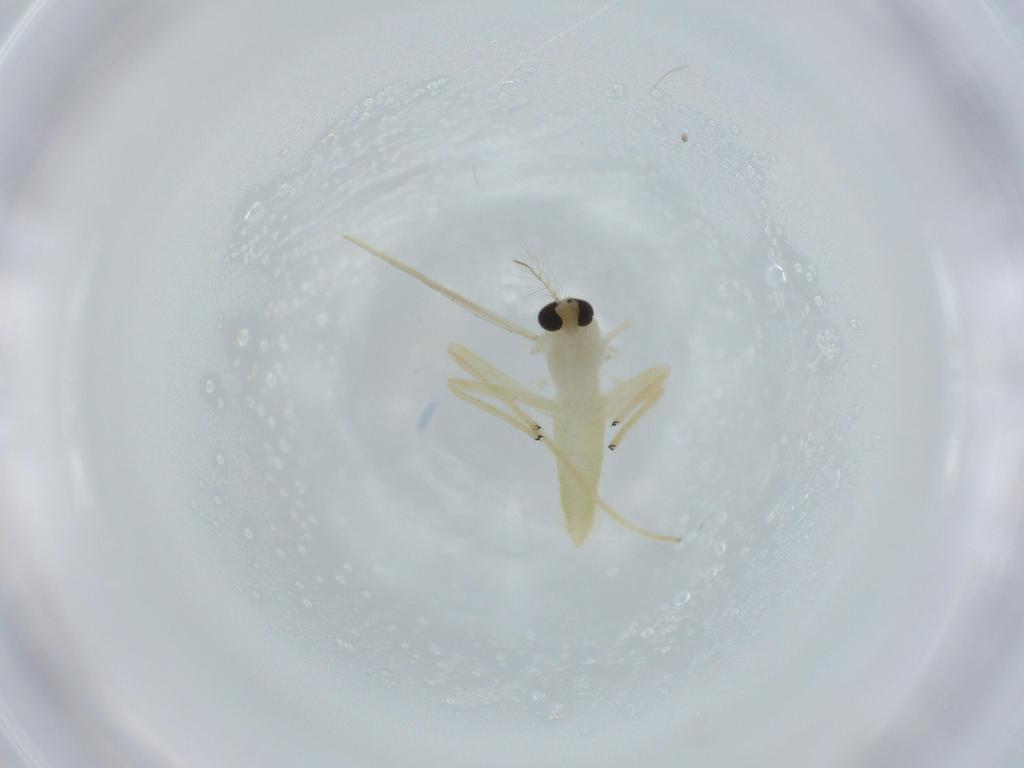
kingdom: Animalia
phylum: Arthropoda
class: Insecta
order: Diptera
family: Chironomidae
